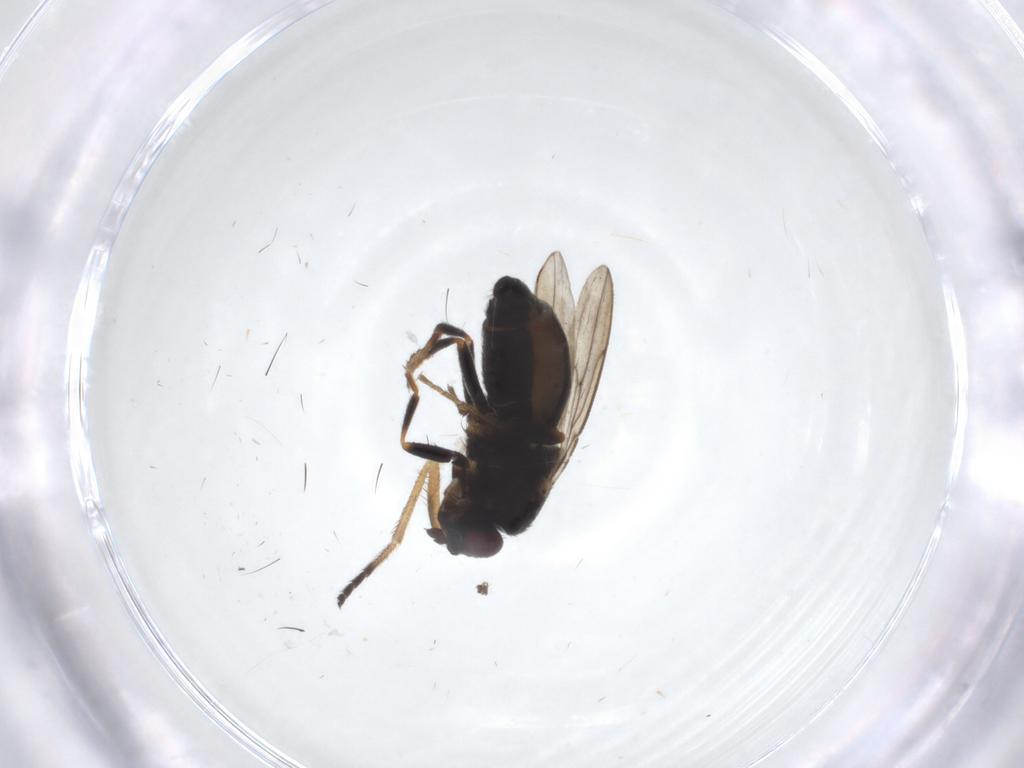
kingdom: Animalia
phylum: Arthropoda
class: Insecta
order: Diptera
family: Sphaeroceridae
